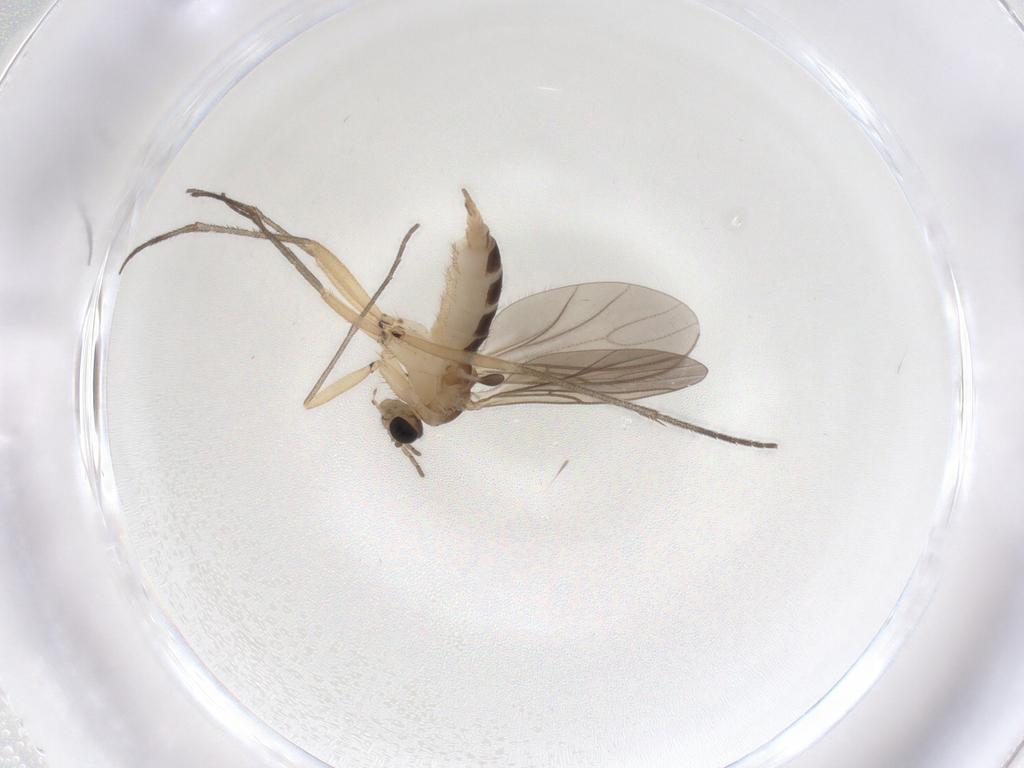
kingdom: Animalia
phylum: Arthropoda
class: Insecta
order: Diptera
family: Sciaridae
